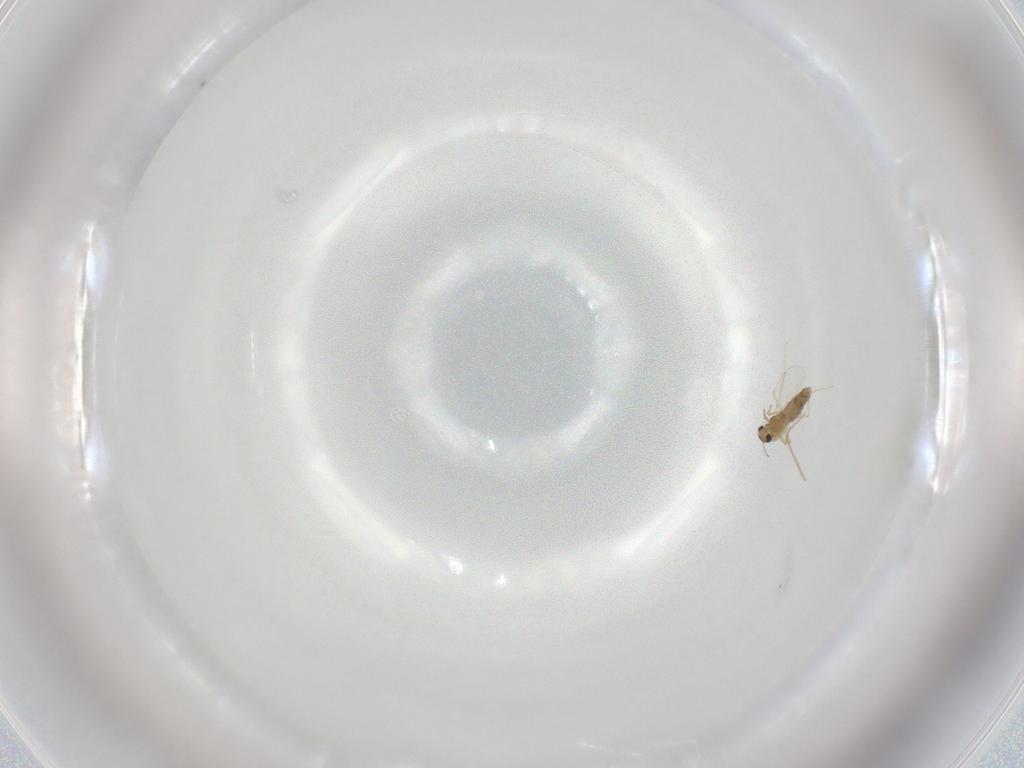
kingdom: Animalia
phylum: Arthropoda
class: Insecta
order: Diptera
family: Chironomidae
